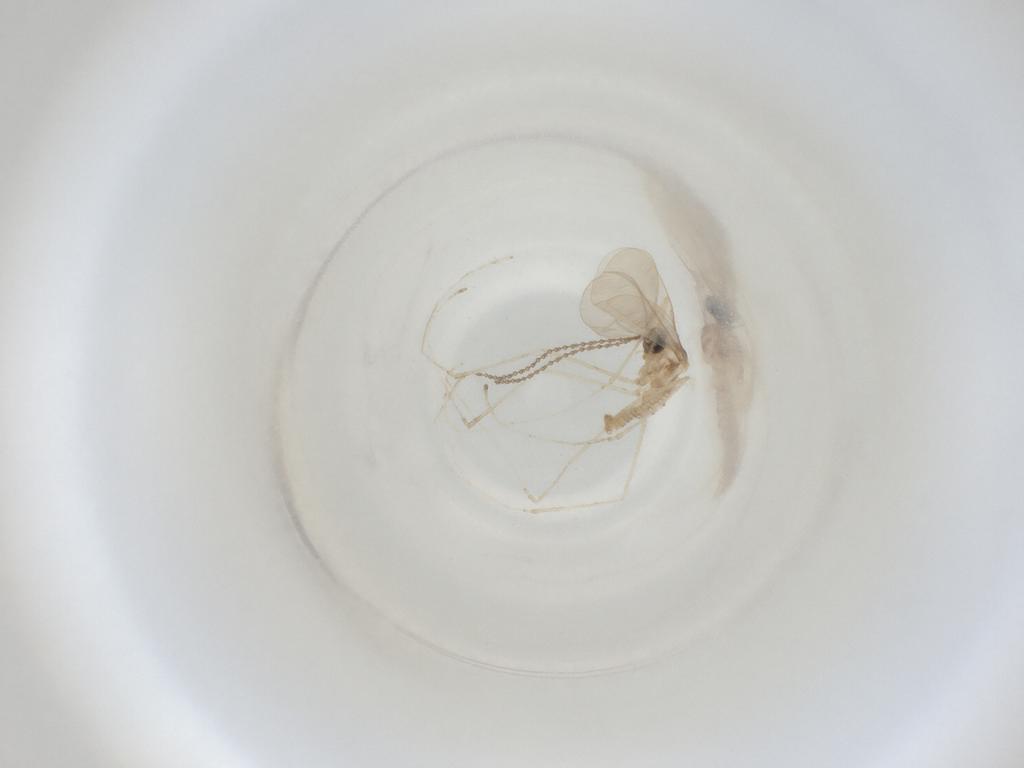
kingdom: Animalia
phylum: Arthropoda
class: Insecta
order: Diptera
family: Cecidomyiidae
